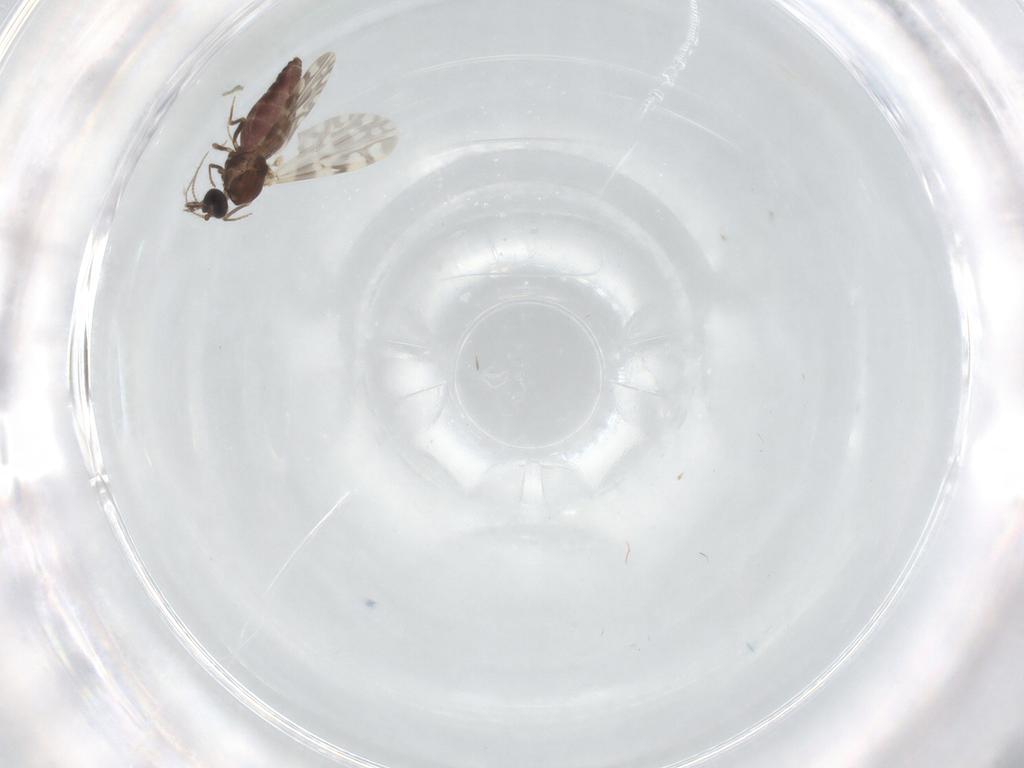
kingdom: Animalia
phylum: Arthropoda
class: Insecta
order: Diptera
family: Ceratopogonidae
